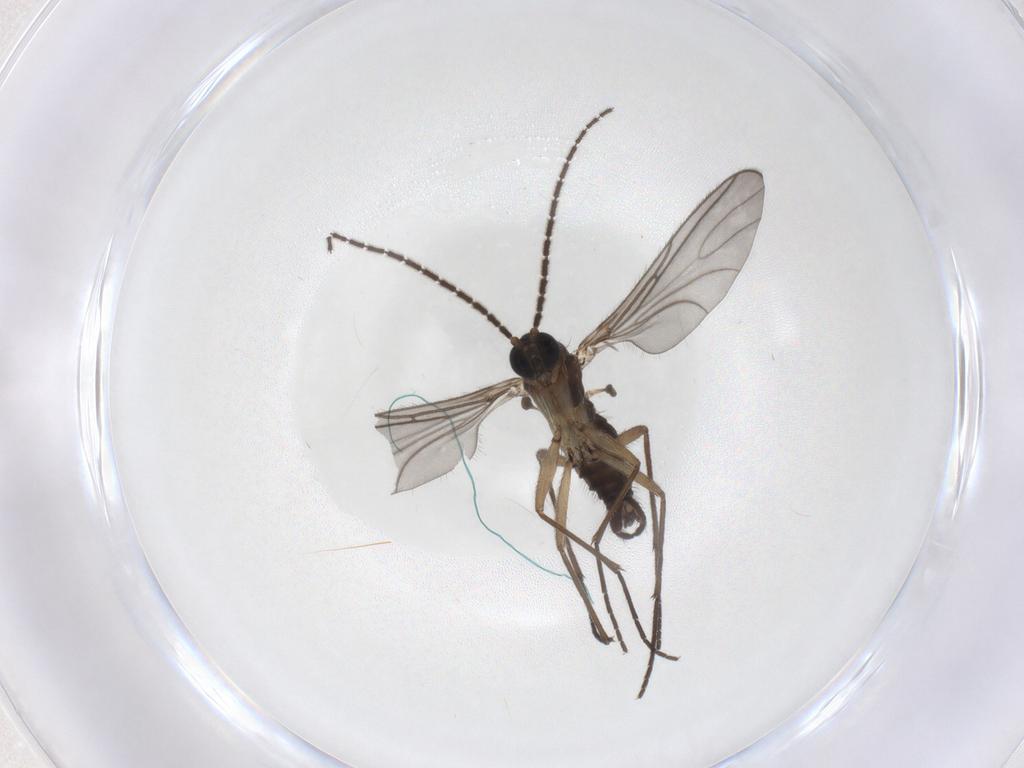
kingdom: Animalia
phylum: Arthropoda
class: Insecta
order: Diptera
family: Sciaridae
